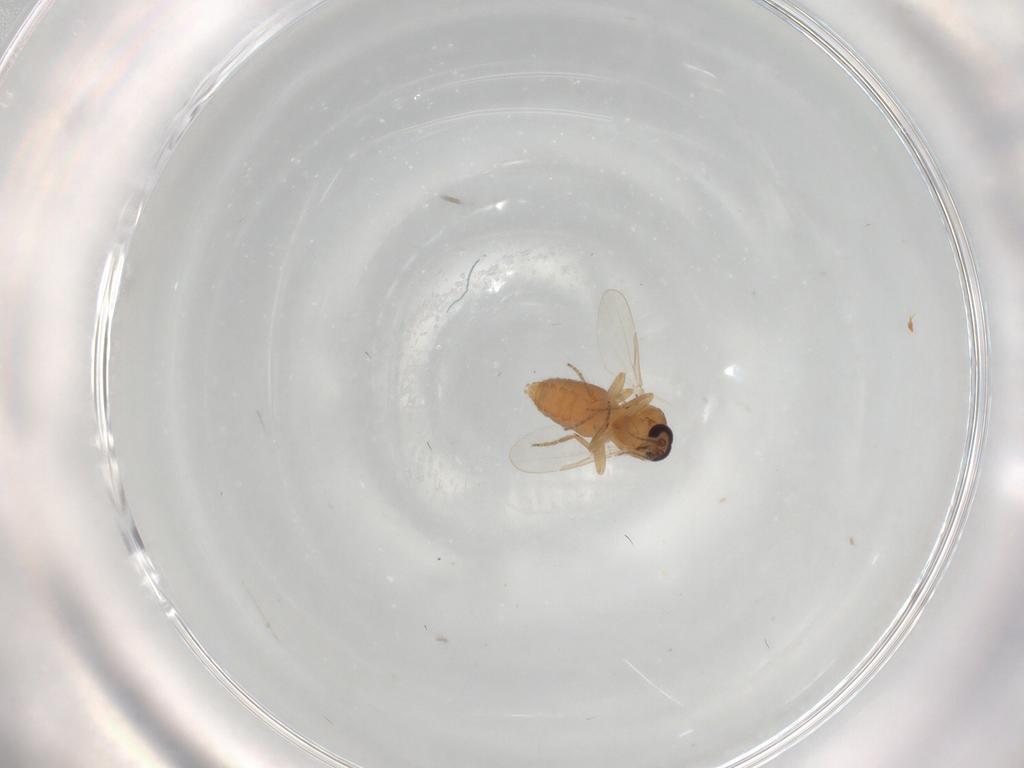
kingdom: Animalia
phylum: Arthropoda
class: Insecta
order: Diptera
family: Ceratopogonidae
